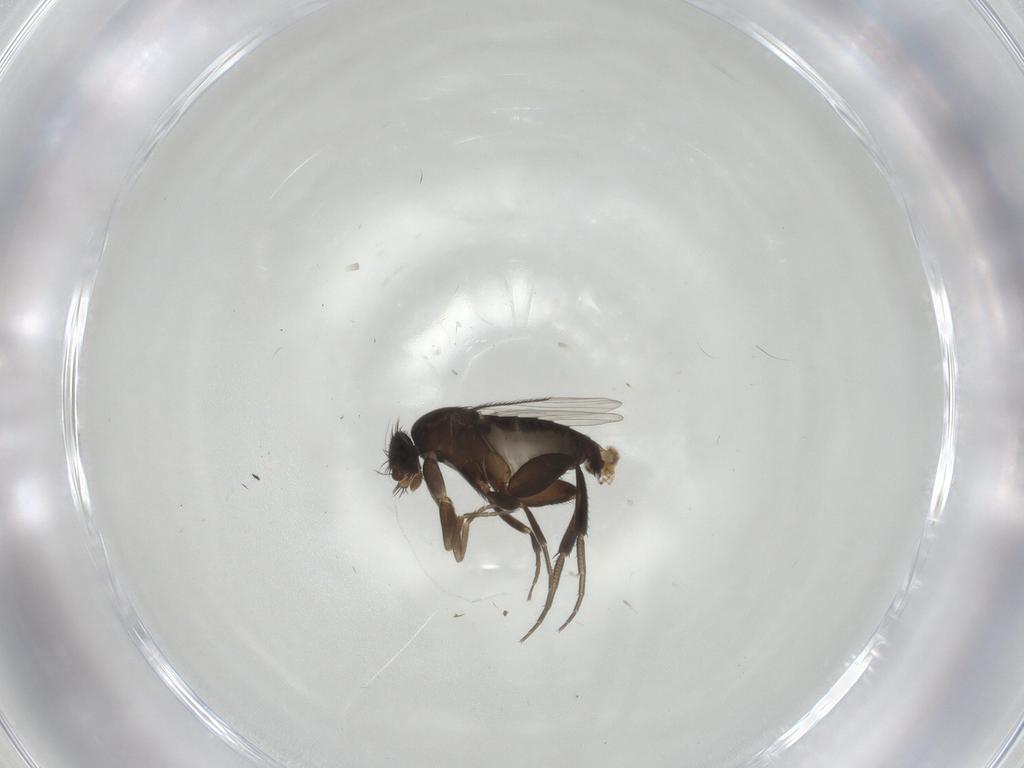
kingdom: Animalia
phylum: Arthropoda
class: Insecta
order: Diptera
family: Phoridae
